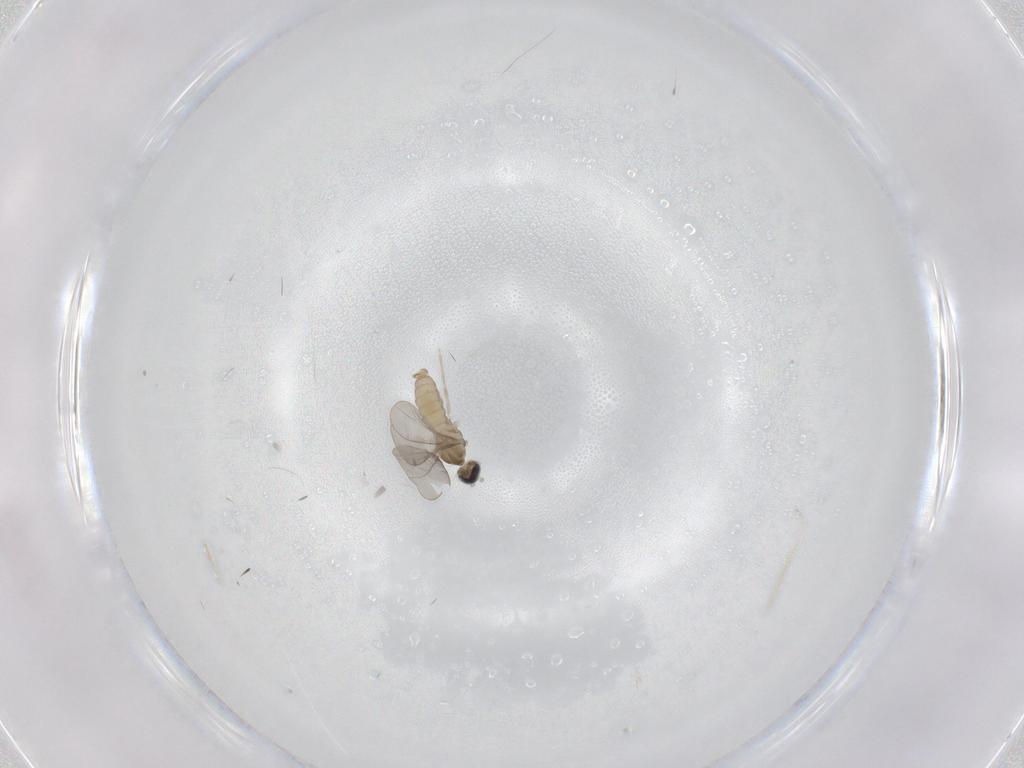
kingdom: Animalia
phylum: Arthropoda
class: Insecta
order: Diptera
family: Cecidomyiidae
